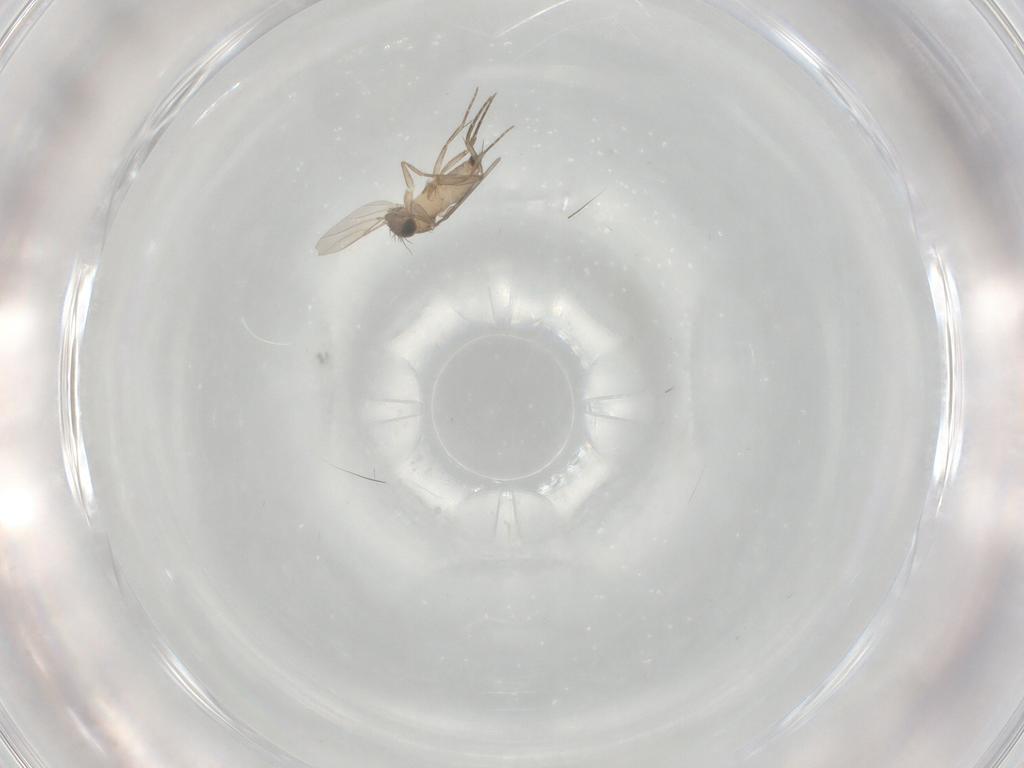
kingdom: Animalia
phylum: Arthropoda
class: Insecta
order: Diptera
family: Phoridae
